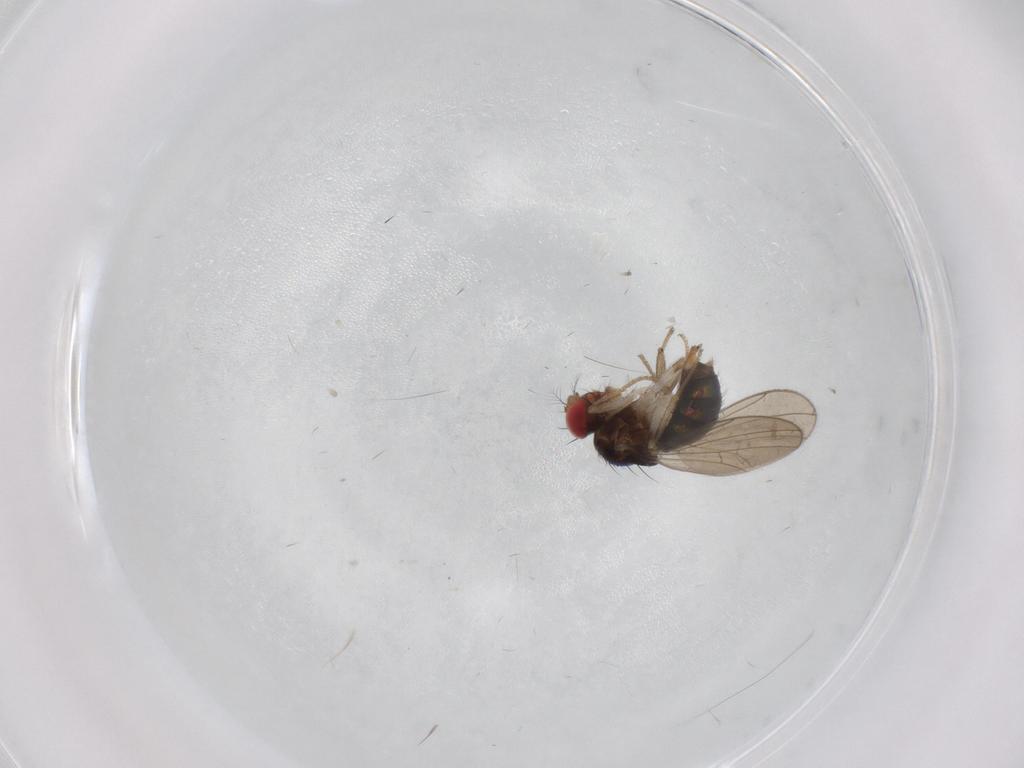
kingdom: Animalia
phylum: Arthropoda
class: Insecta
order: Diptera
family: Drosophilidae
